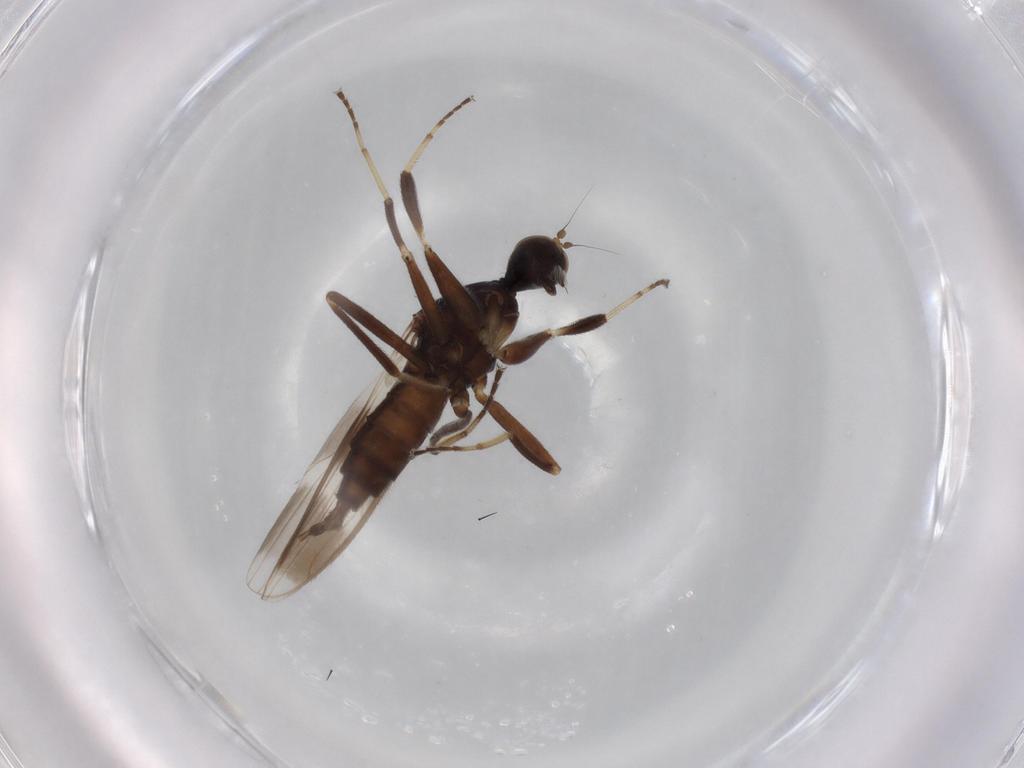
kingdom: Animalia
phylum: Arthropoda
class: Insecta
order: Diptera
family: Hybotidae
